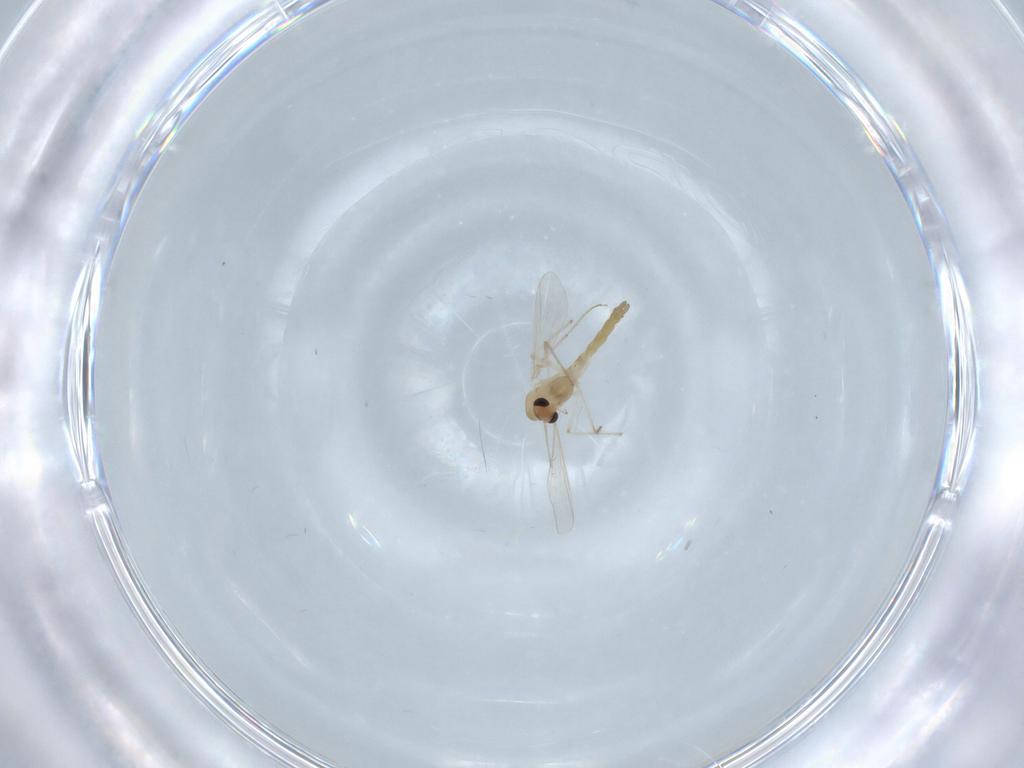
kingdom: Animalia
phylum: Arthropoda
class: Insecta
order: Diptera
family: Chironomidae
